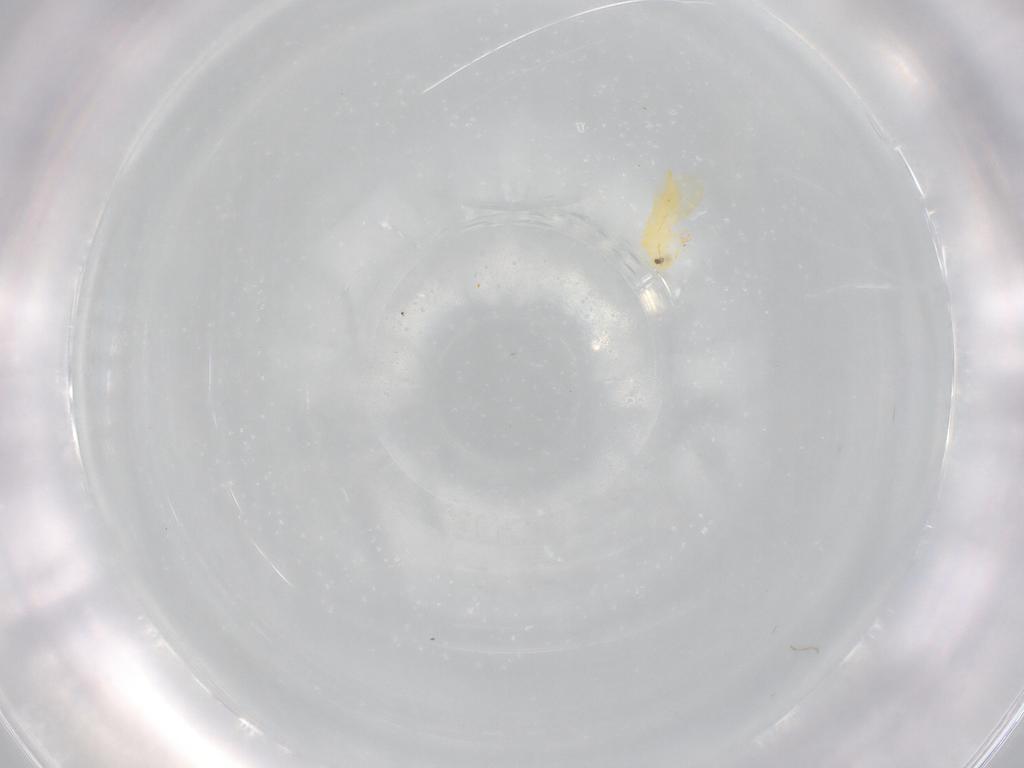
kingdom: Animalia
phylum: Arthropoda
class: Insecta
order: Hemiptera
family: Aleyrodidae
